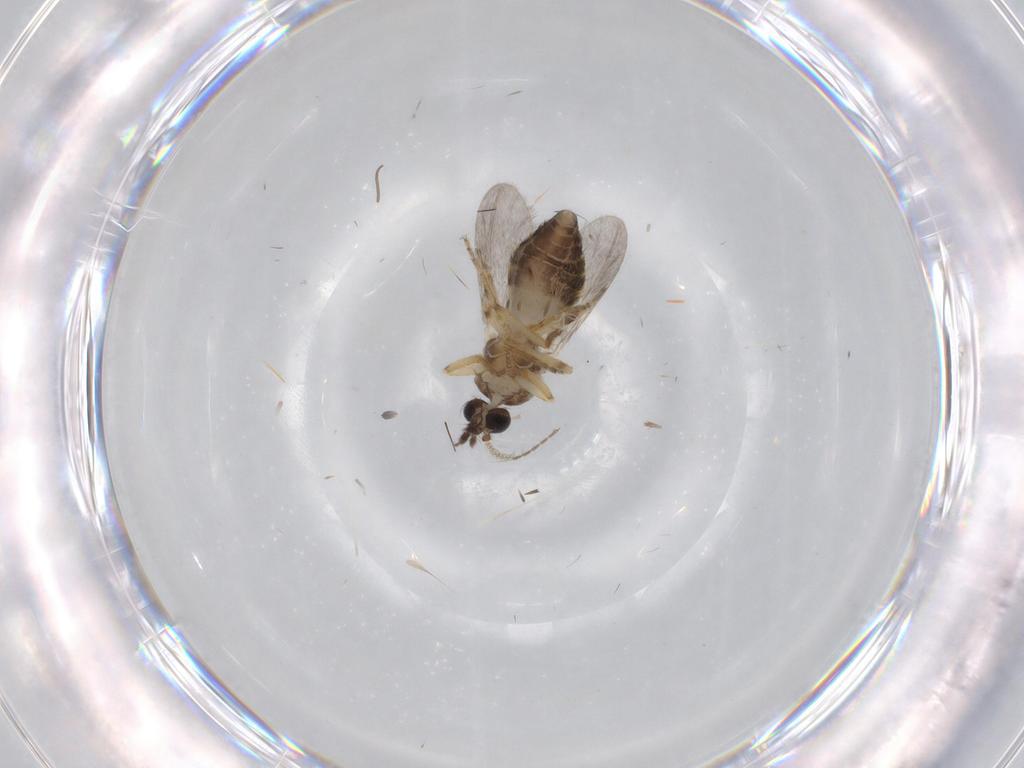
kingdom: Animalia
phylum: Arthropoda
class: Insecta
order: Diptera
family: Ceratopogonidae
